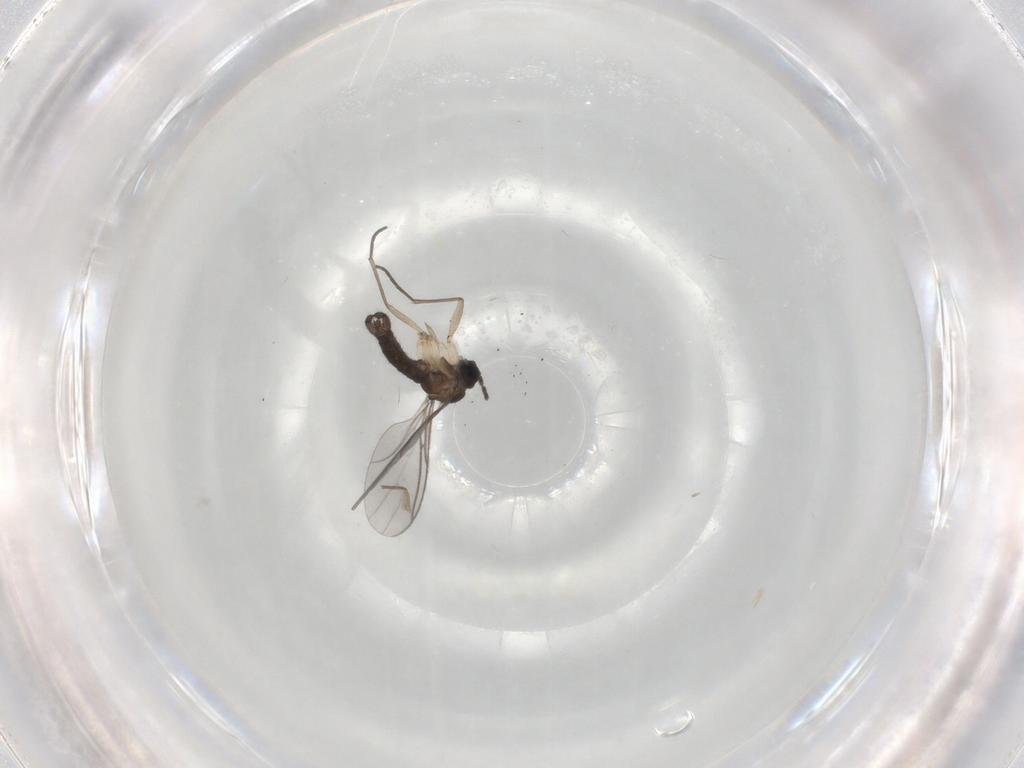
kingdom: Animalia
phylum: Arthropoda
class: Insecta
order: Diptera
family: Sciaridae
